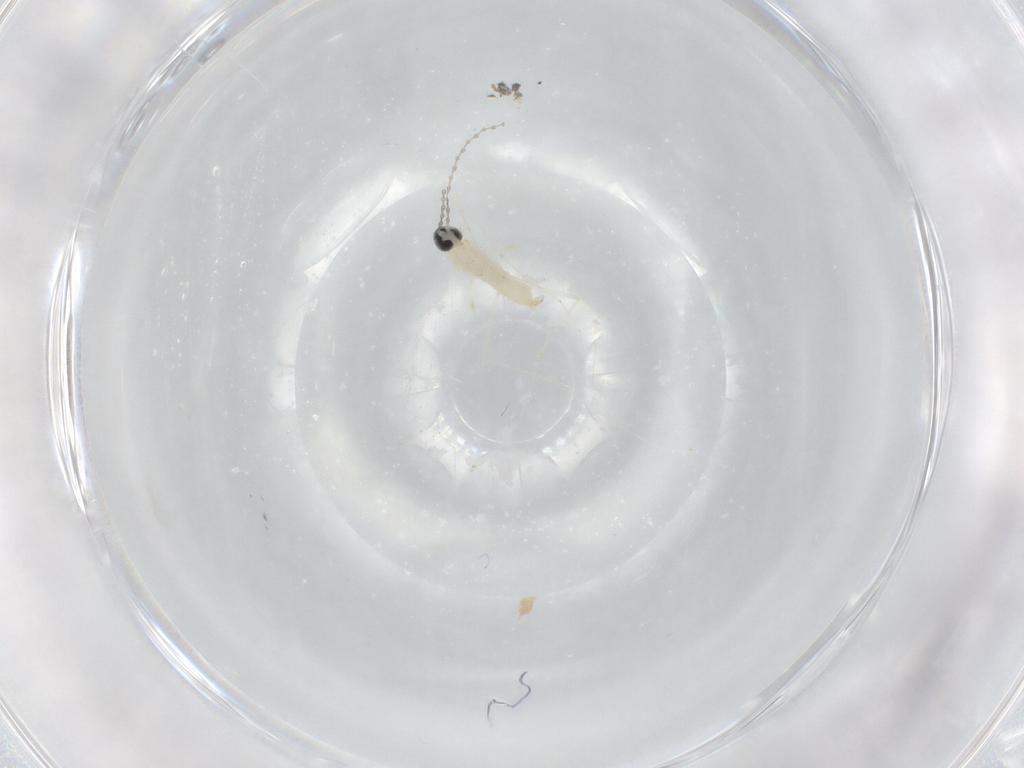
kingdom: Animalia
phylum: Arthropoda
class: Insecta
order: Diptera
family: Cecidomyiidae
